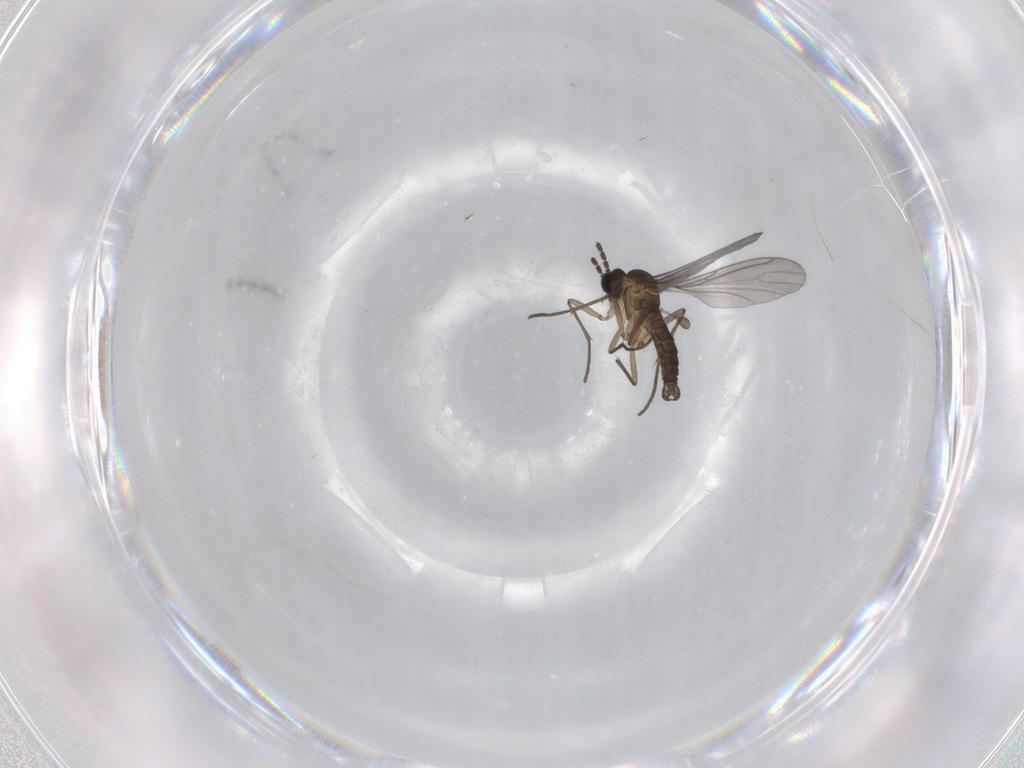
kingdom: Animalia
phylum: Arthropoda
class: Insecta
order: Diptera
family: Sciaridae
